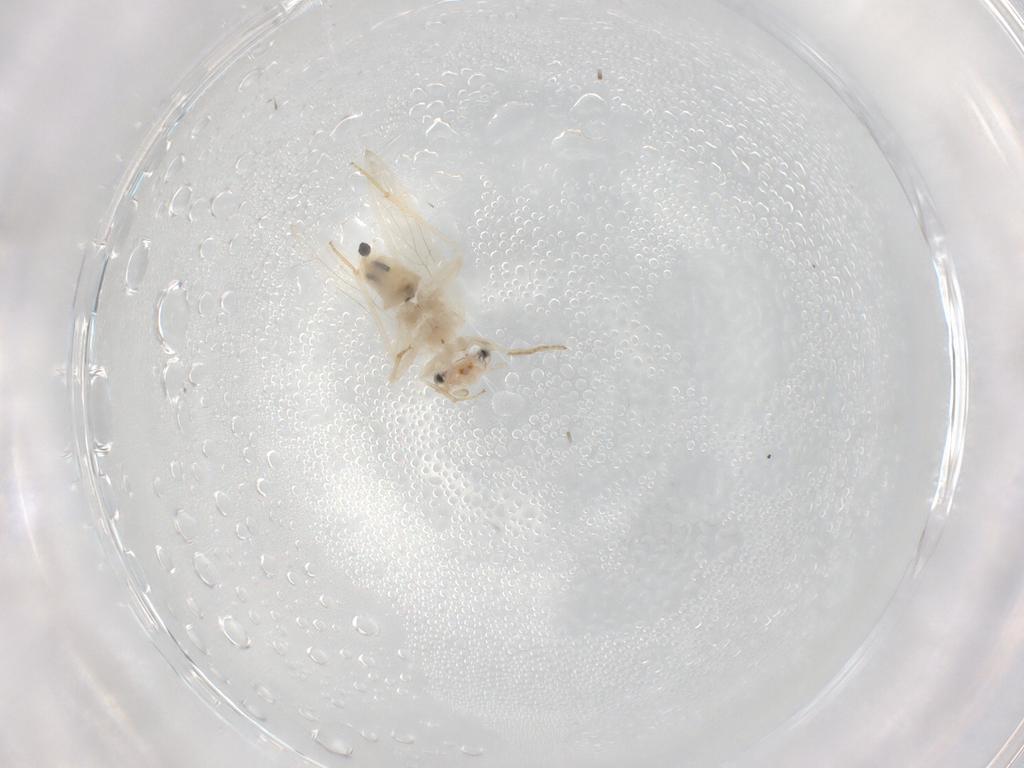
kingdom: Animalia
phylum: Arthropoda
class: Insecta
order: Psocodea
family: Lepidopsocidae
